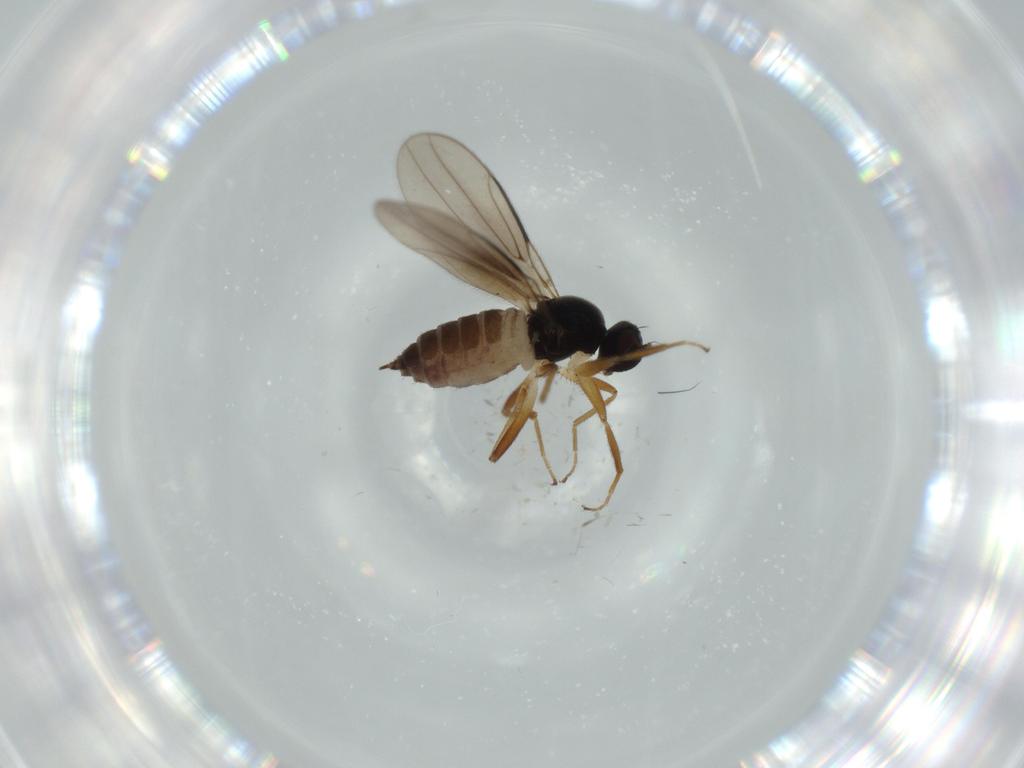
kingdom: Animalia
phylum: Arthropoda
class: Insecta
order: Diptera
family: Hybotidae
